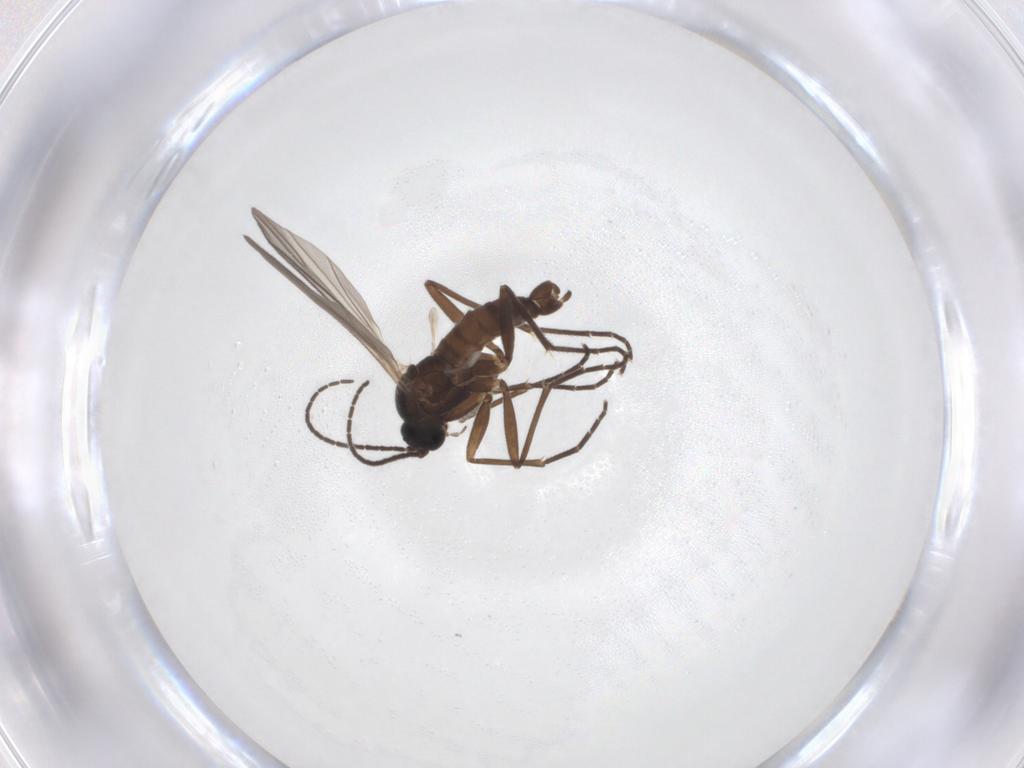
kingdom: Animalia
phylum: Arthropoda
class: Insecta
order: Diptera
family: Sciaridae
